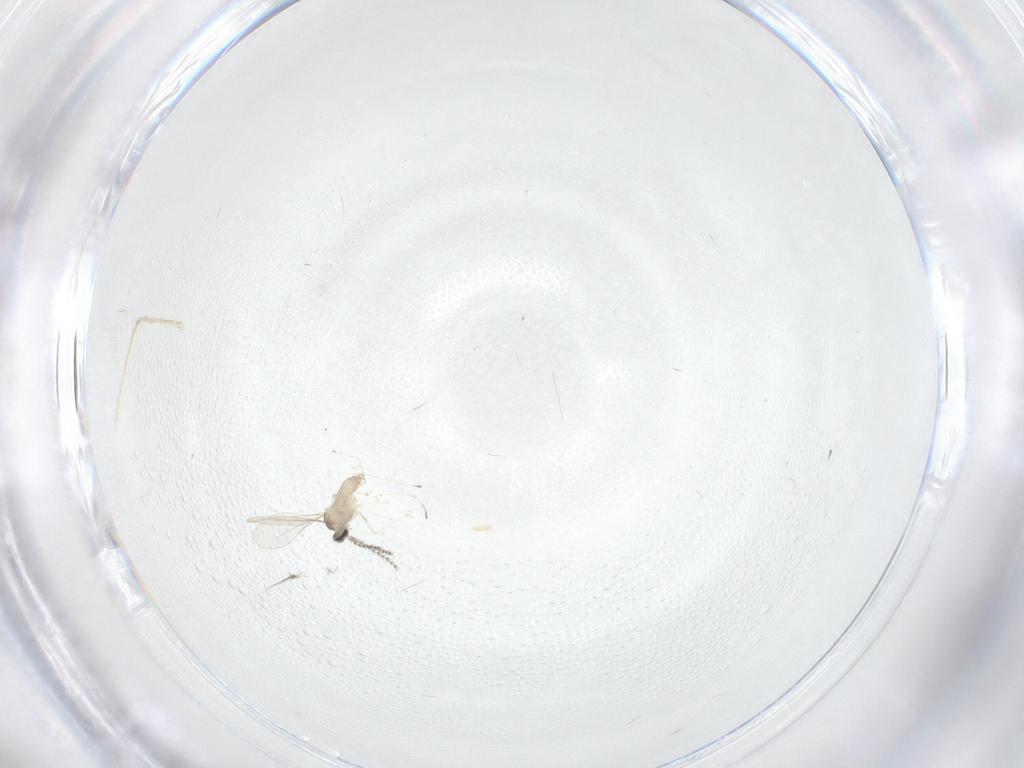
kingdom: Animalia
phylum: Arthropoda
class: Insecta
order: Diptera
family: Cecidomyiidae
